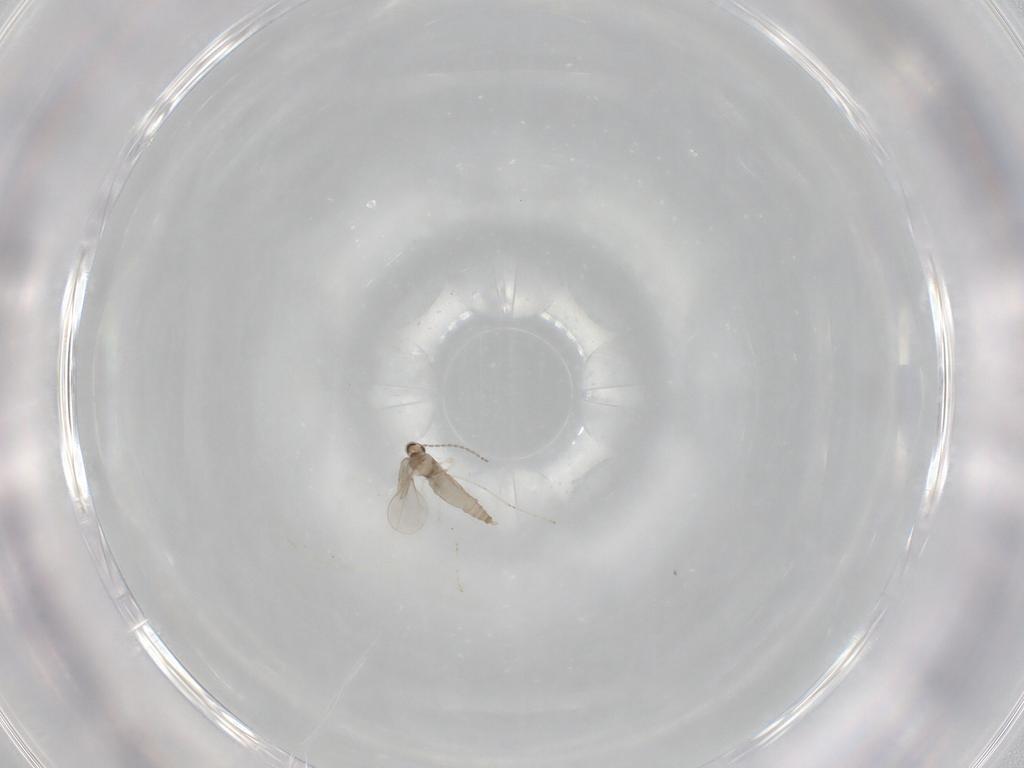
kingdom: Animalia
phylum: Arthropoda
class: Insecta
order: Diptera
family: Cecidomyiidae
